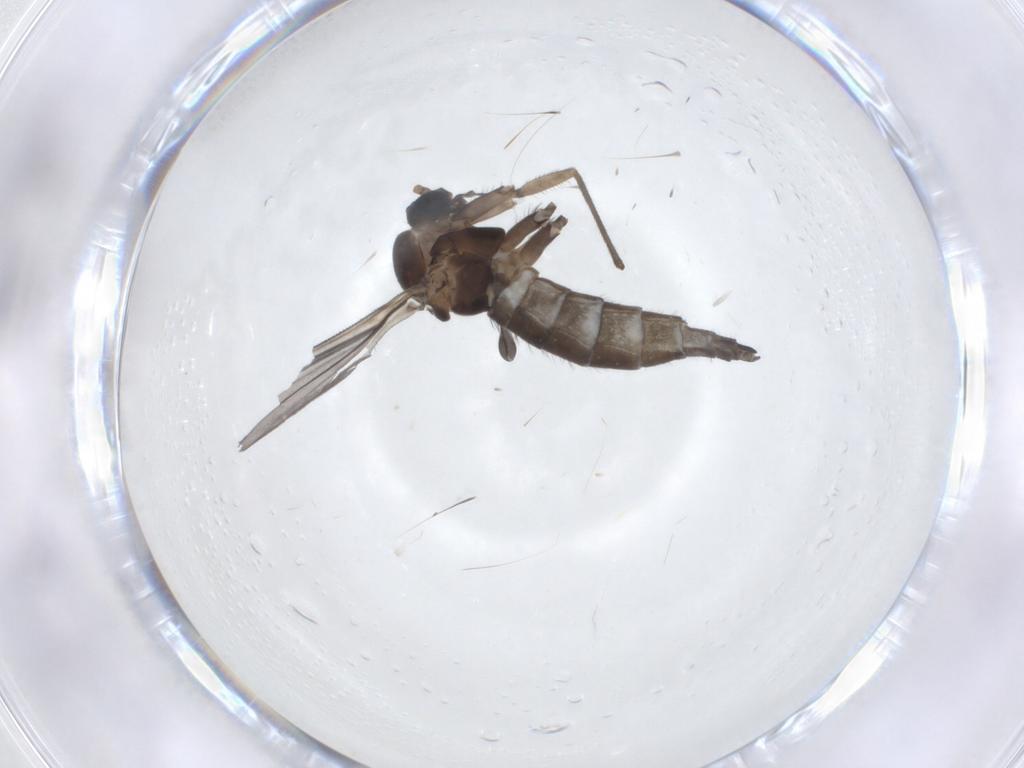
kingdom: Animalia
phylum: Arthropoda
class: Insecta
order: Diptera
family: Sciaridae
